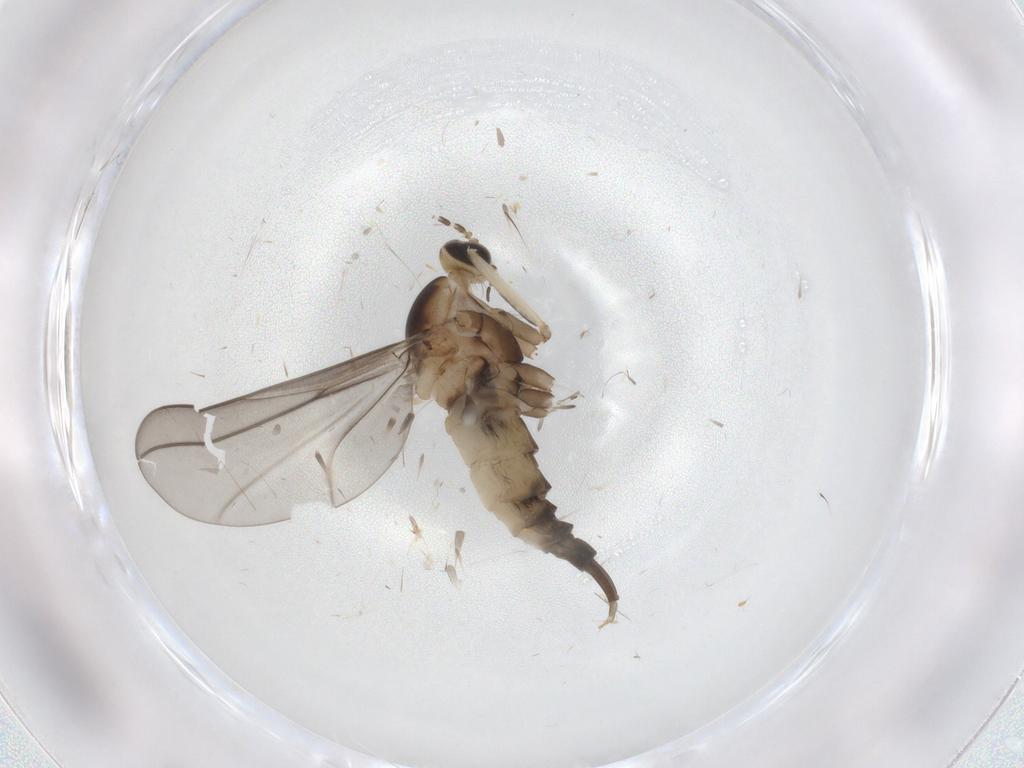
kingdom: Animalia
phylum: Arthropoda
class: Insecta
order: Diptera
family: Cecidomyiidae
